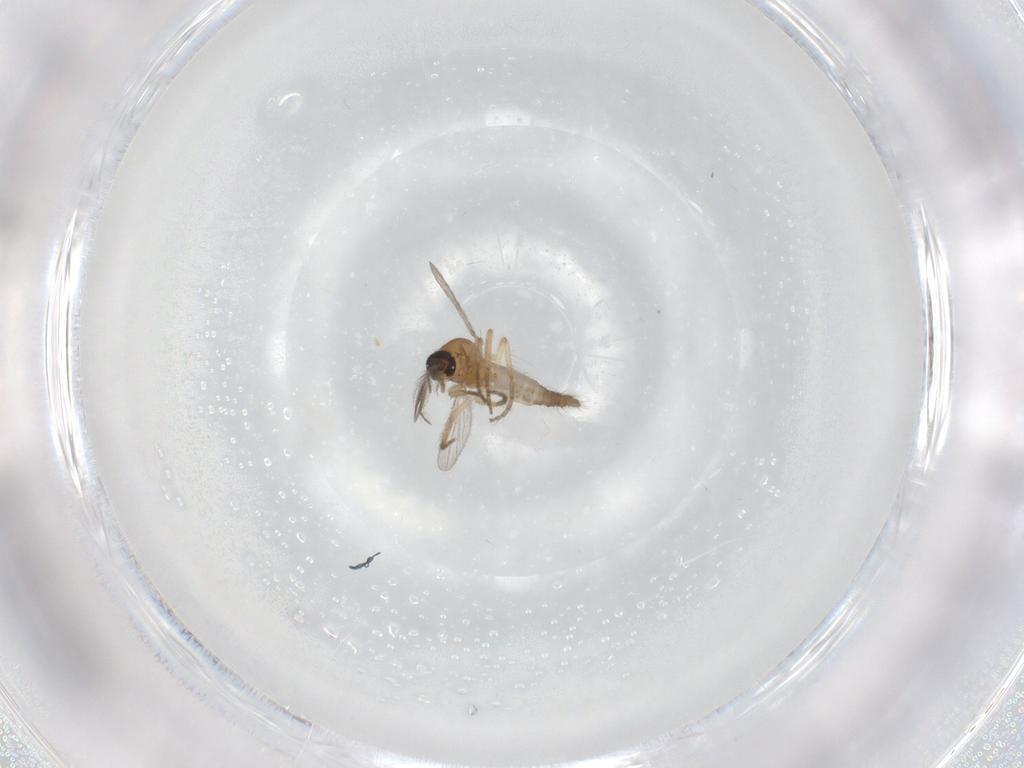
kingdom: Animalia
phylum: Arthropoda
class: Insecta
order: Diptera
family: Ceratopogonidae
